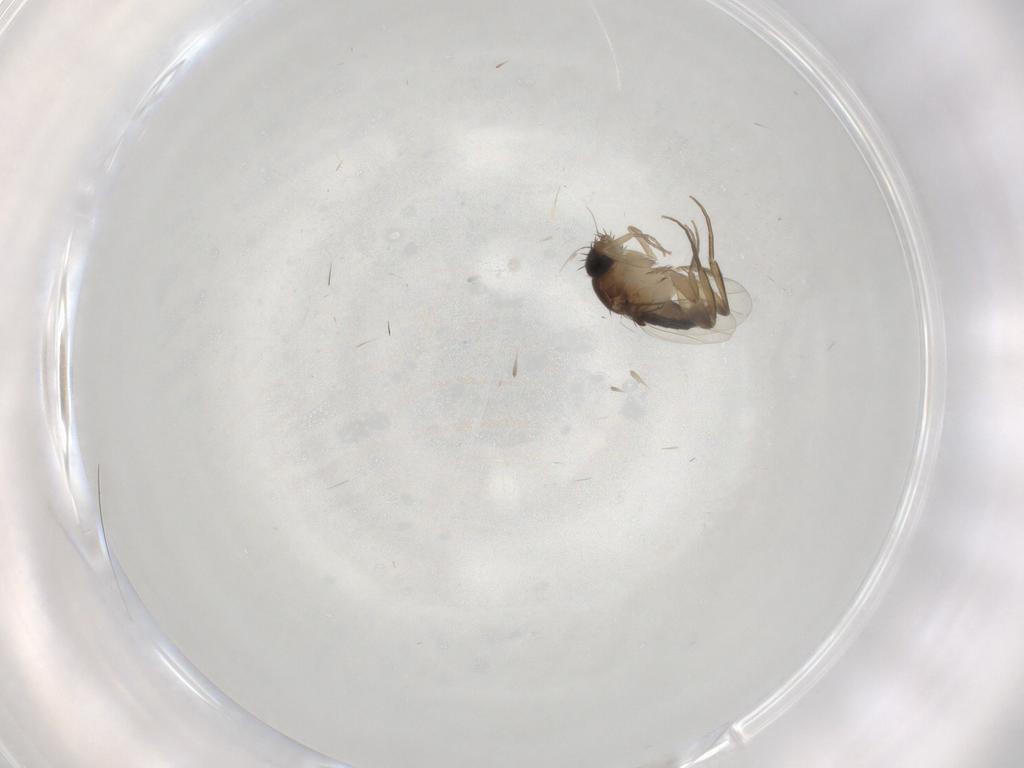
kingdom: Animalia
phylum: Arthropoda
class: Insecta
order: Diptera
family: Phoridae
